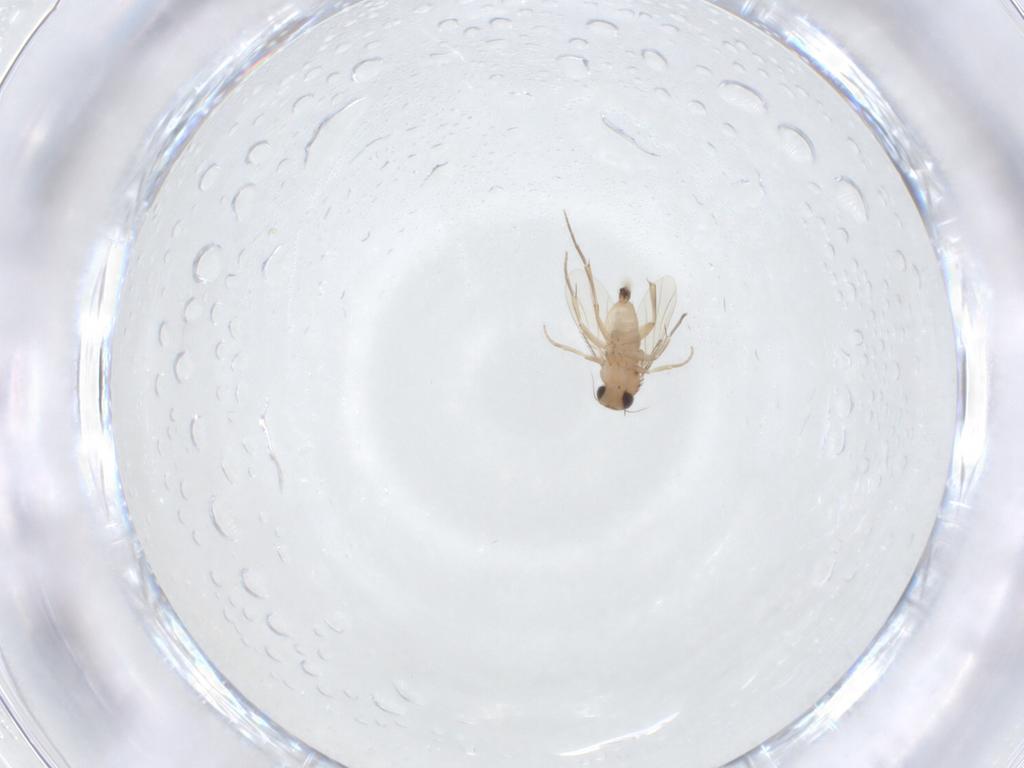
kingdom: Animalia
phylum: Arthropoda
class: Insecta
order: Diptera
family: Phoridae
